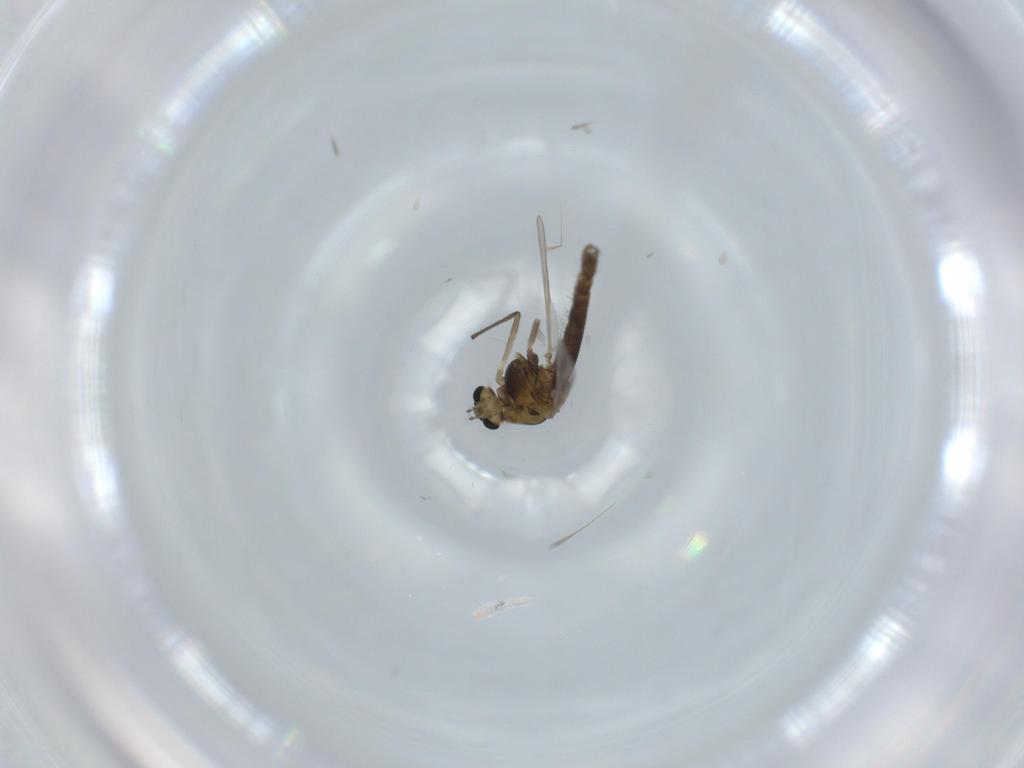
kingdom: Animalia
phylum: Arthropoda
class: Insecta
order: Diptera
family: Chironomidae
